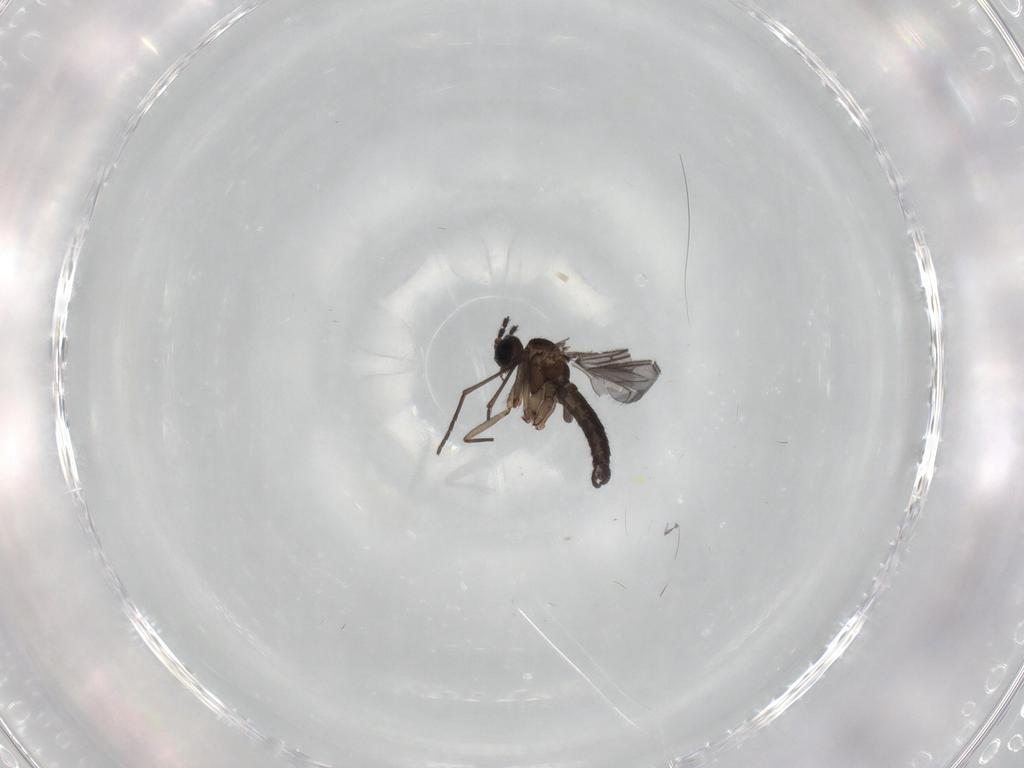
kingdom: Animalia
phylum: Arthropoda
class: Insecta
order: Diptera
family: Sciaridae
